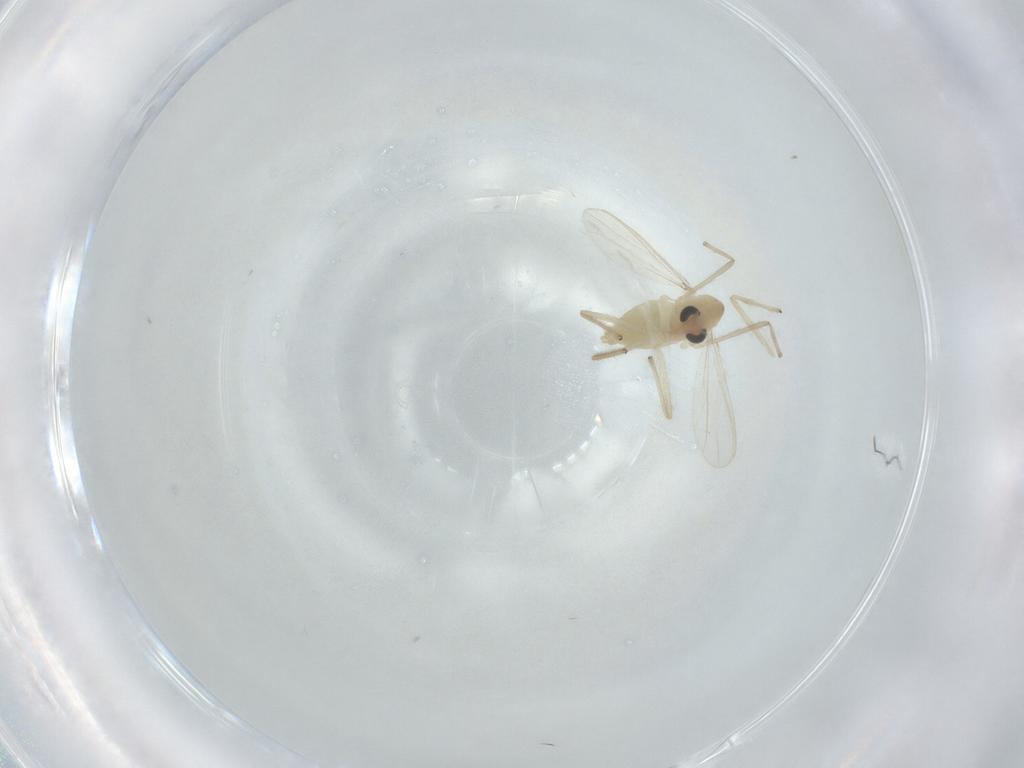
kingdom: Animalia
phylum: Arthropoda
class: Insecta
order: Diptera
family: Chironomidae
